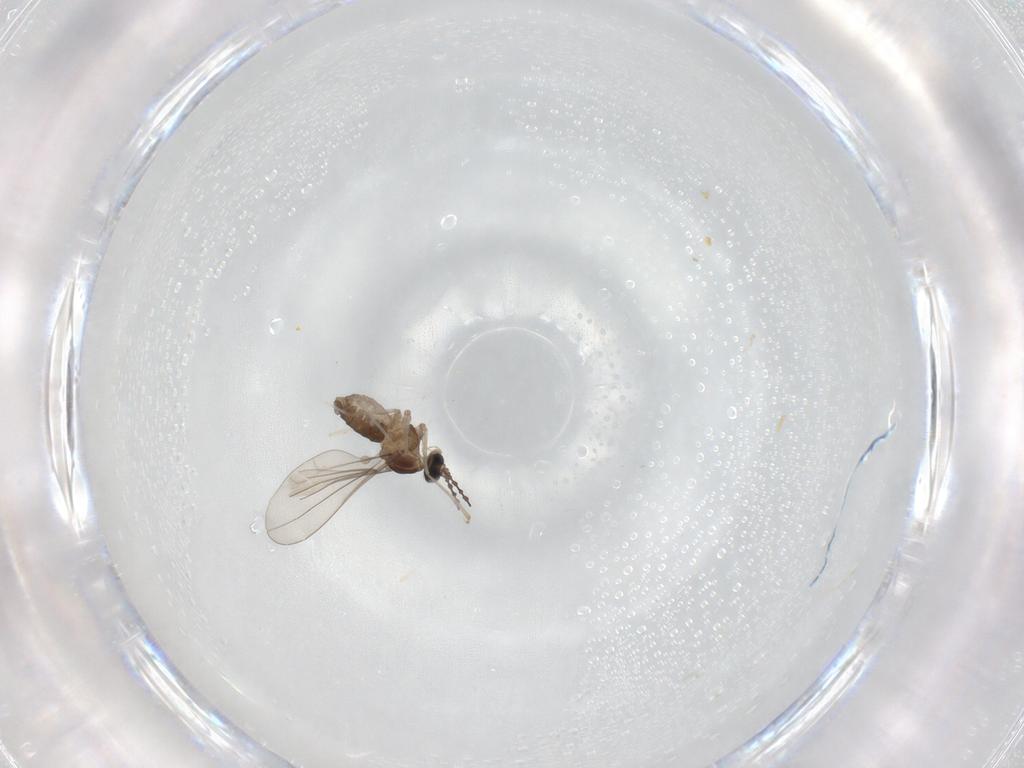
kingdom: Animalia
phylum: Arthropoda
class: Insecta
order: Diptera
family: Cecidomyiidae
